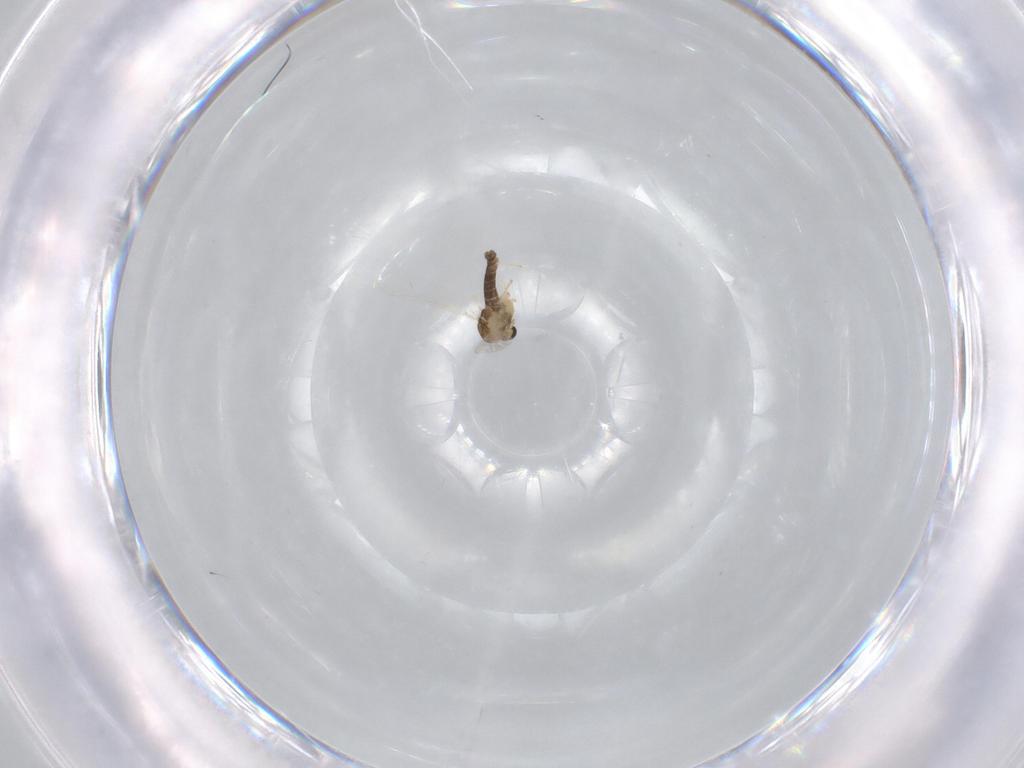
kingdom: Animalia
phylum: Arthropoda
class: Insecta
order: Diptera
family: Chironomidae
